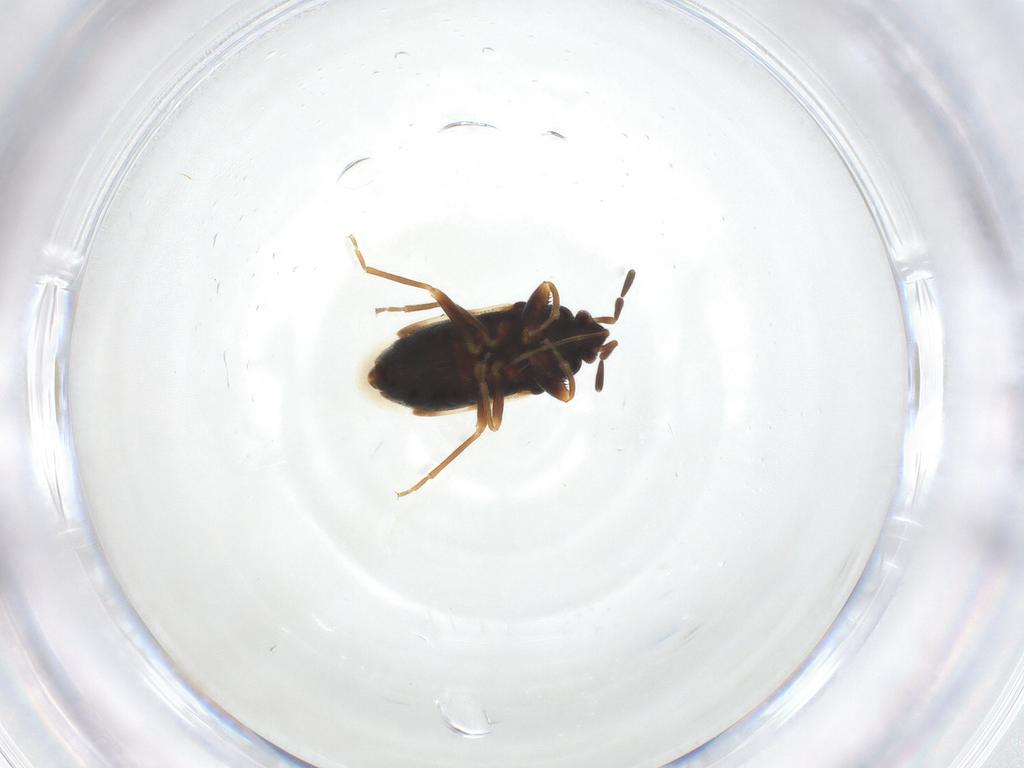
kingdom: Animalia
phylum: Arthropoda
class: Insecta
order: Hemiptera
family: Rhyparochromidae
